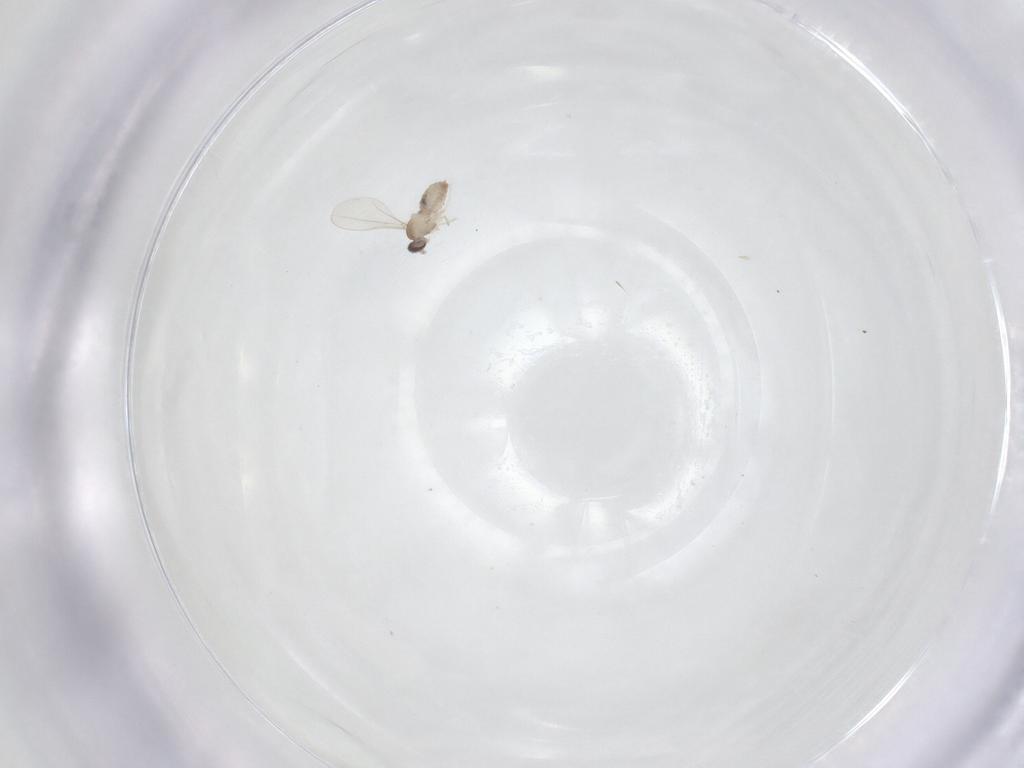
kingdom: Animalia
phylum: Arthropoda
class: Insecta
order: Diptera
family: Cecidomyiidae
